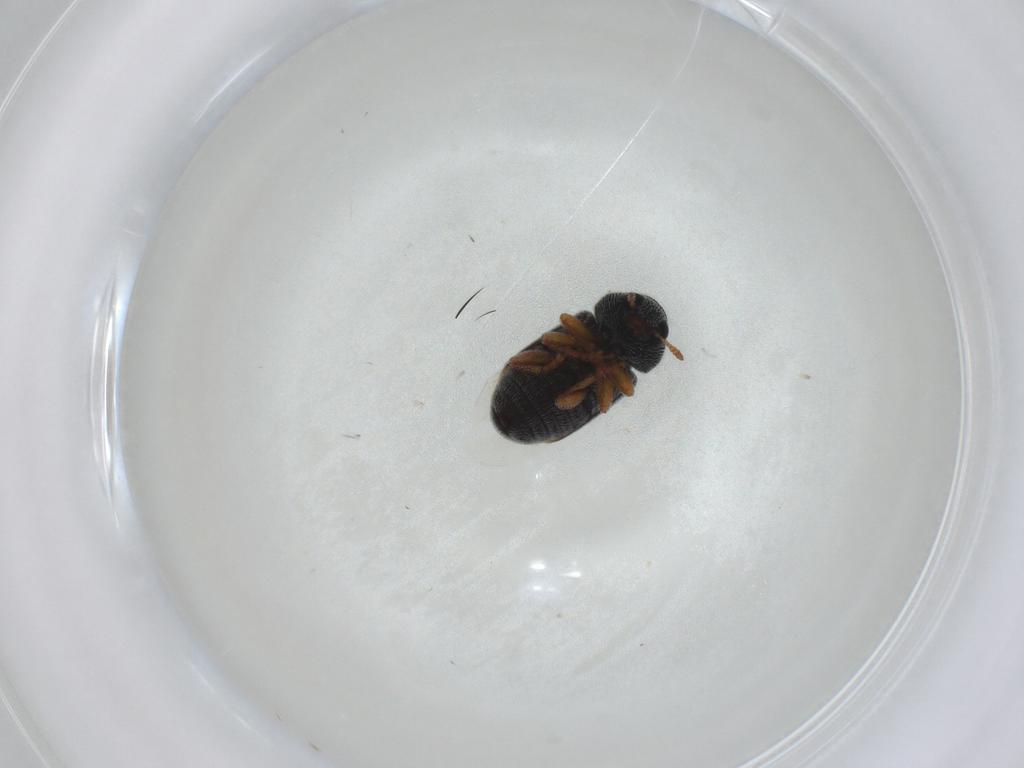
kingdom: Animalia
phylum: Arthropoda
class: Insecta
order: Coleoptera
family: Anthribidae
